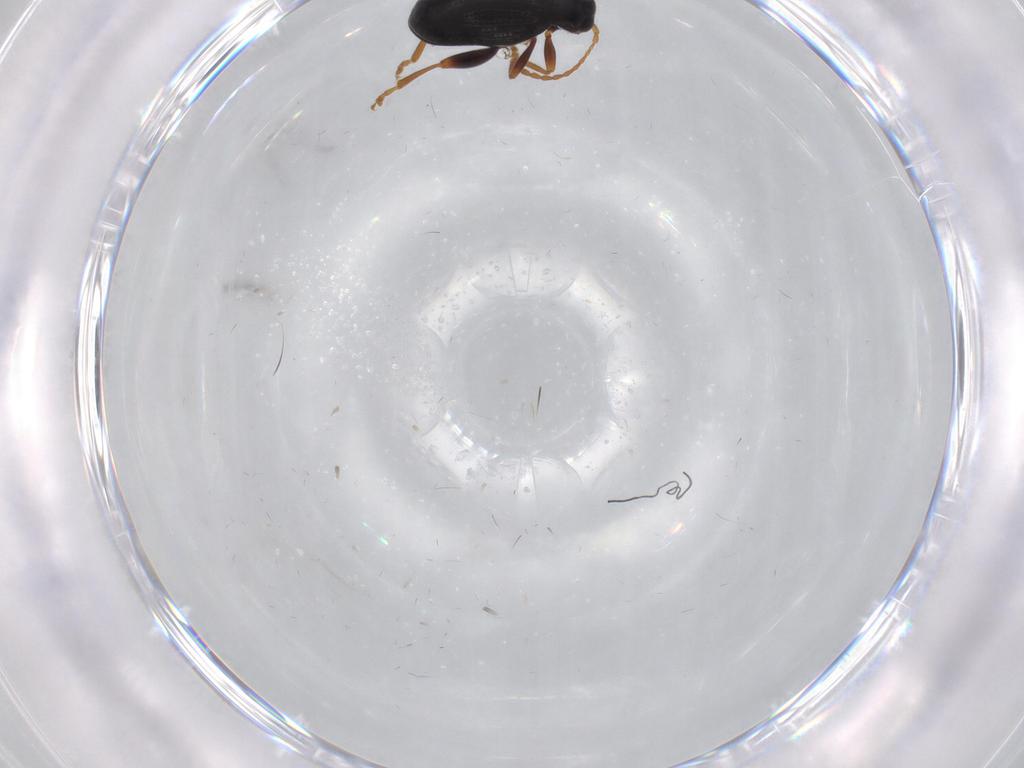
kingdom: Animalia
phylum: Arthropoda
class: Insecta
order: Coleoptera
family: Chrysomelidae
